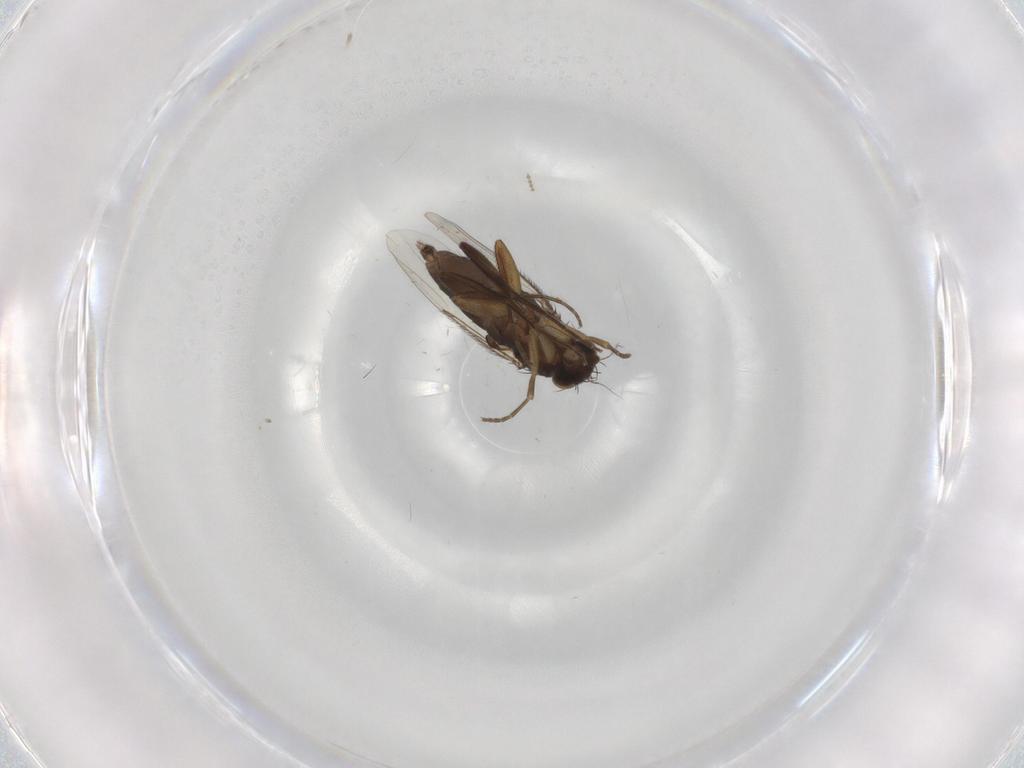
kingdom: Animalia
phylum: Arthropoda
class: Insecta
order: Diptera
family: Phoridae
